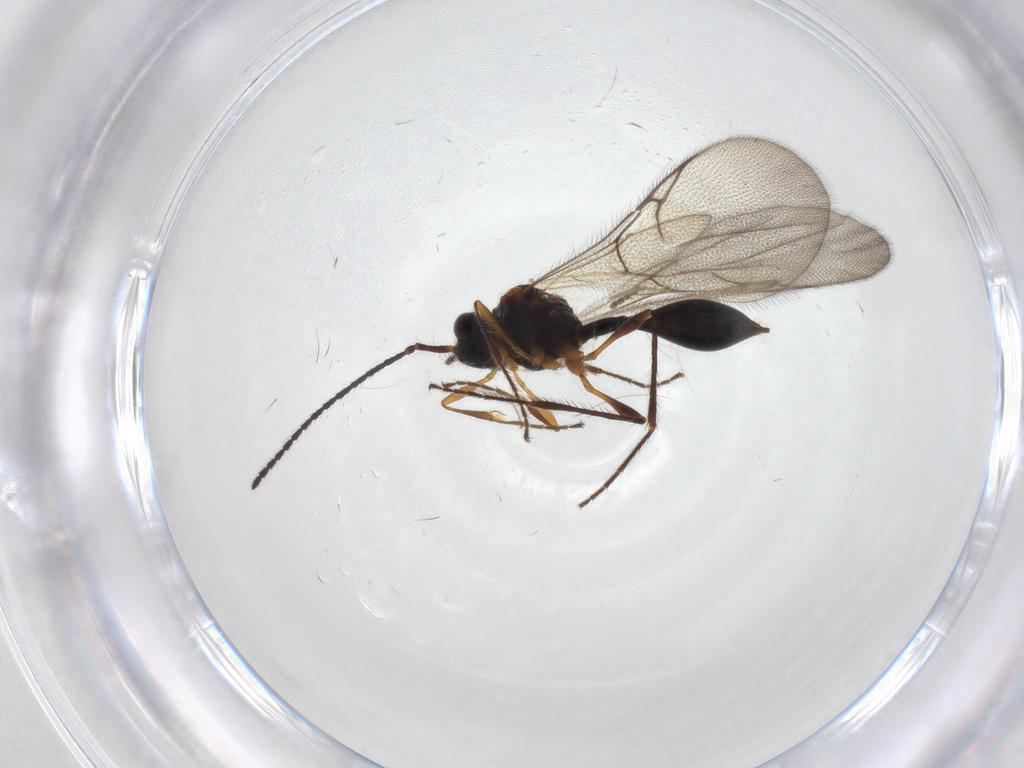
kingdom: Animalia
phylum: Arthropoda
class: Insecta
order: Hymenoptera
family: Diapriidae
